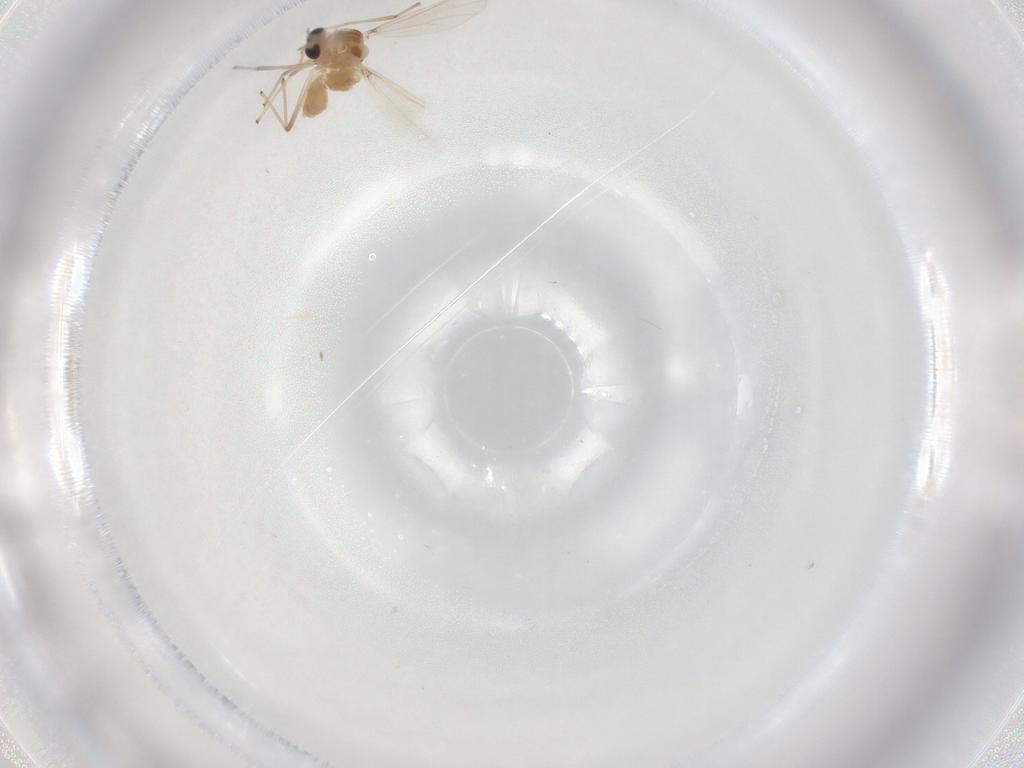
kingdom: Animalia
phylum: Arthropoda
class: Insecta
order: Diptera
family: Chironomidae
